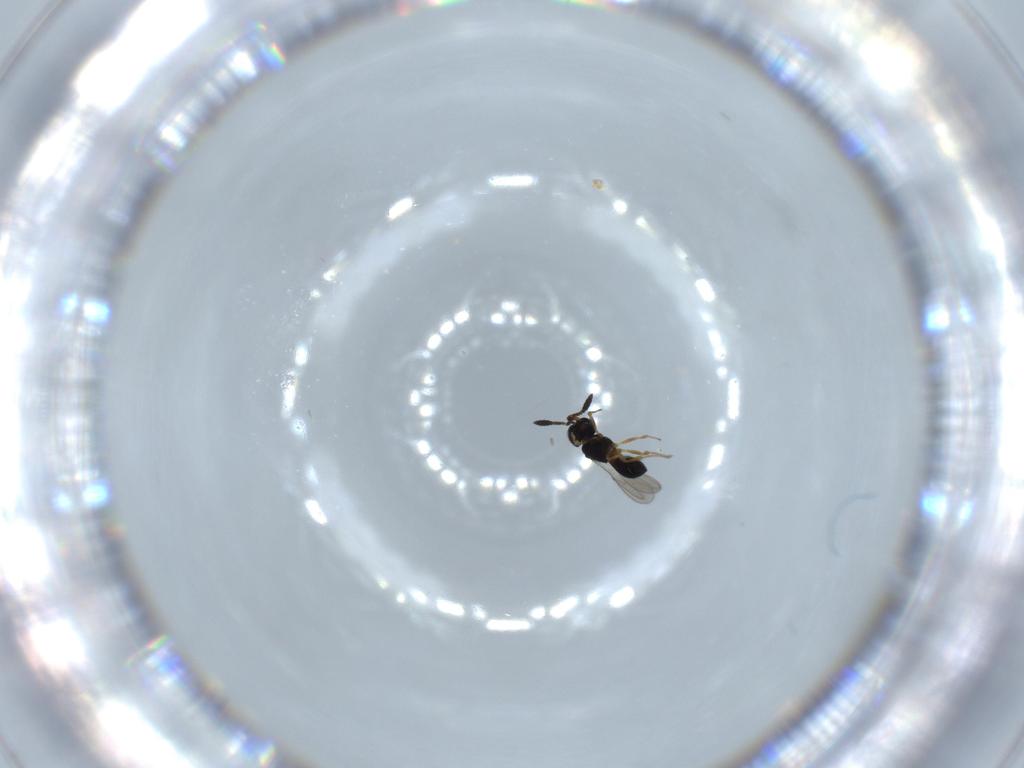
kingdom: Animalia
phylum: Arthropoda
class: Insecta
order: Hymenoptera
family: Scelionidae
